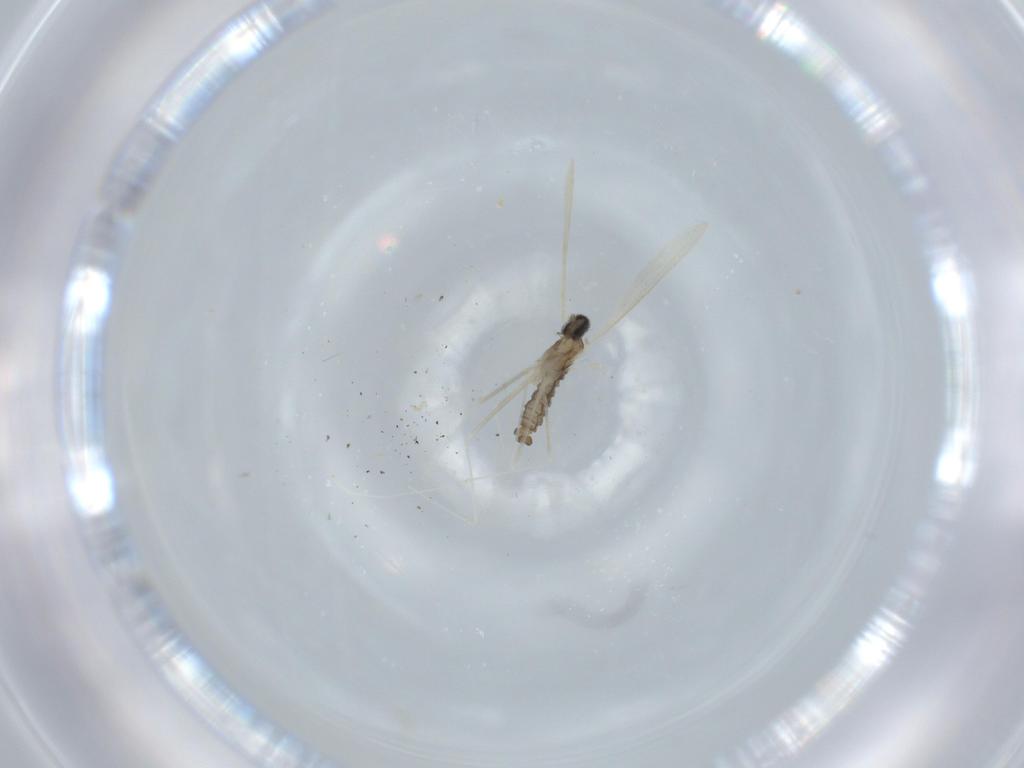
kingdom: Animalia
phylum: Arthropoda
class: Insecta
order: Diptera
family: Cecidomyiidae
